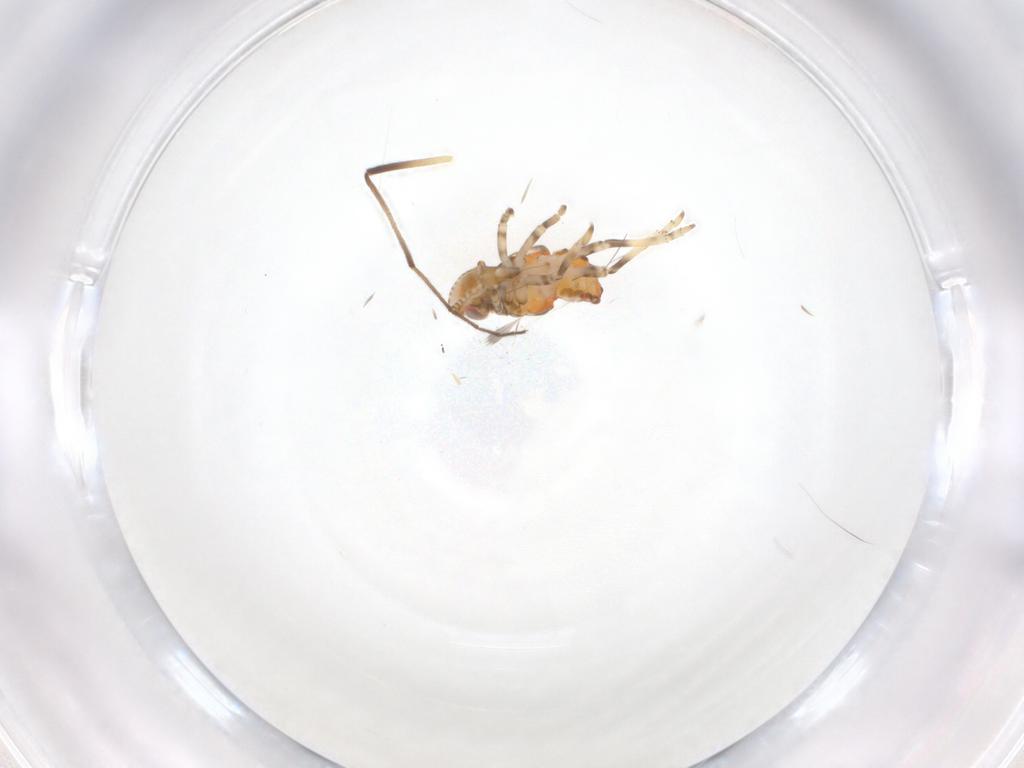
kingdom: Animalia
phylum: Arthropoda
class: Insecta
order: Hemiptera
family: Tropiduchidae
